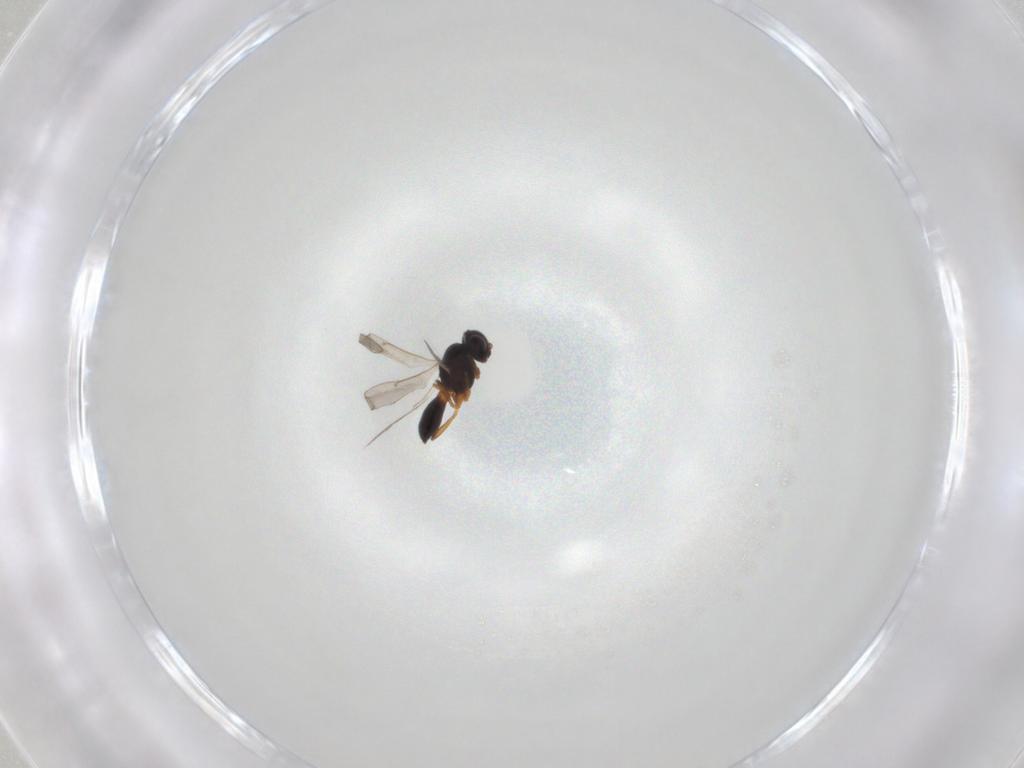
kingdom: Animalia
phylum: Arthropoda
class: Insecta
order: Hymenoptera
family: Scelionidae
